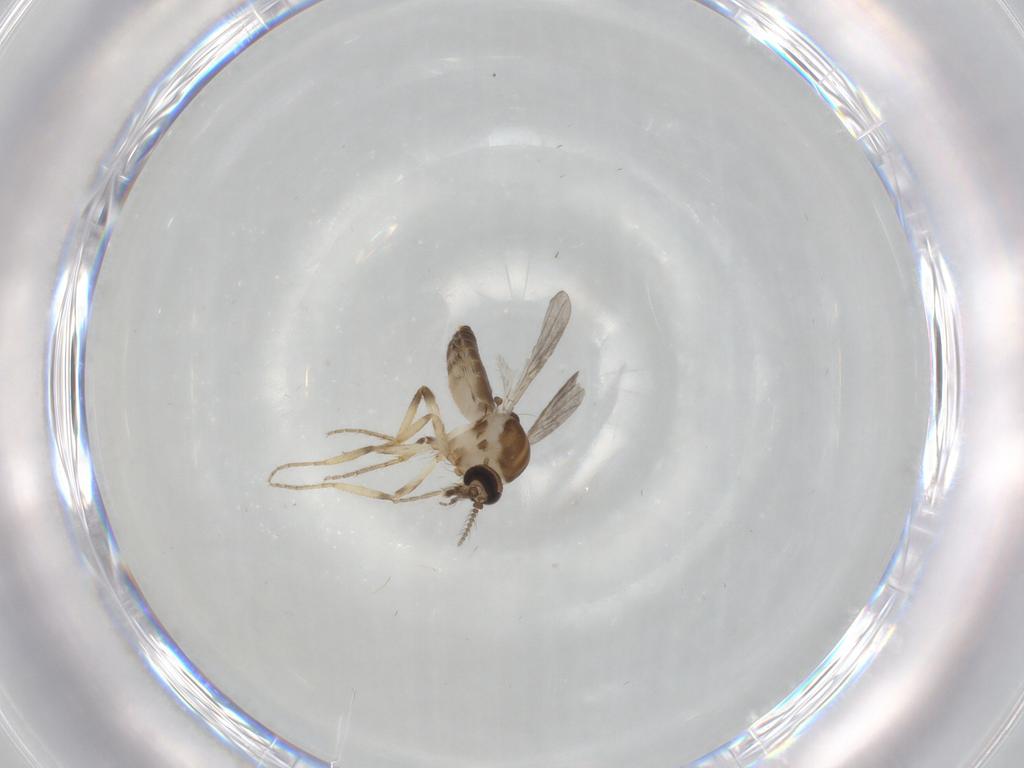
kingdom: Animalia
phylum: Arthropoda
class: Insecta
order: Diptera
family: Ceratopogonidae
